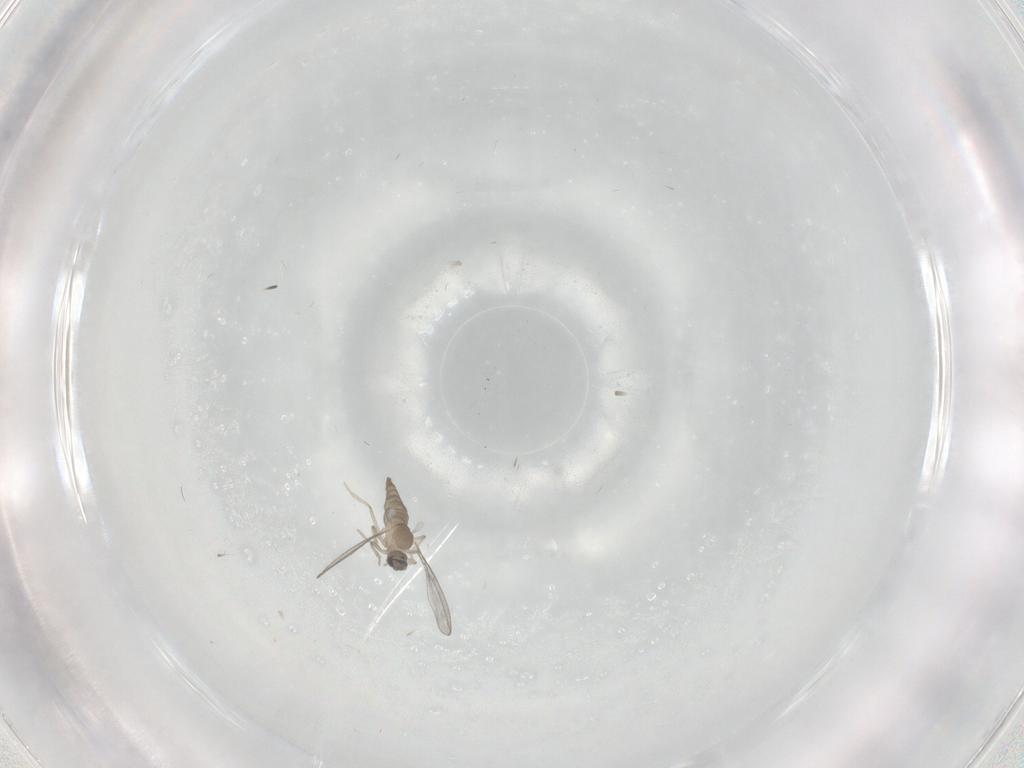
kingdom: Animalia
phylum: Arthropoda
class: Insecta
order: Diptera
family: Cecidomyiidae
